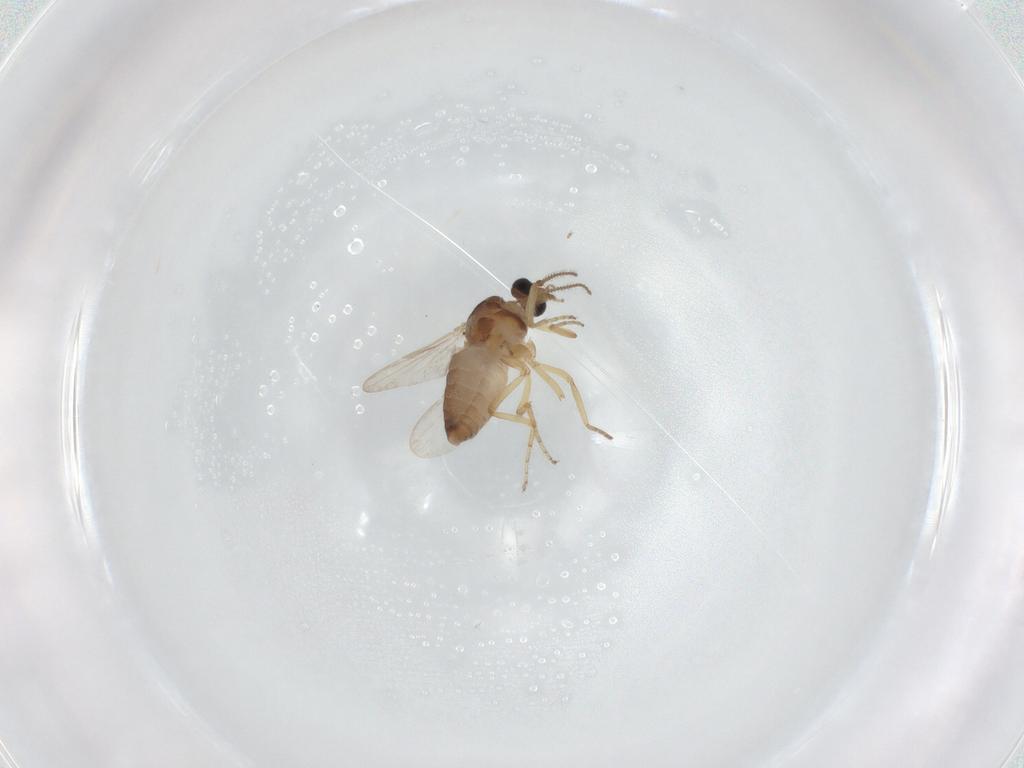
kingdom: Animalia
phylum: Arthropoda
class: Insecta
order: Diptera
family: Ceratopogonidae
